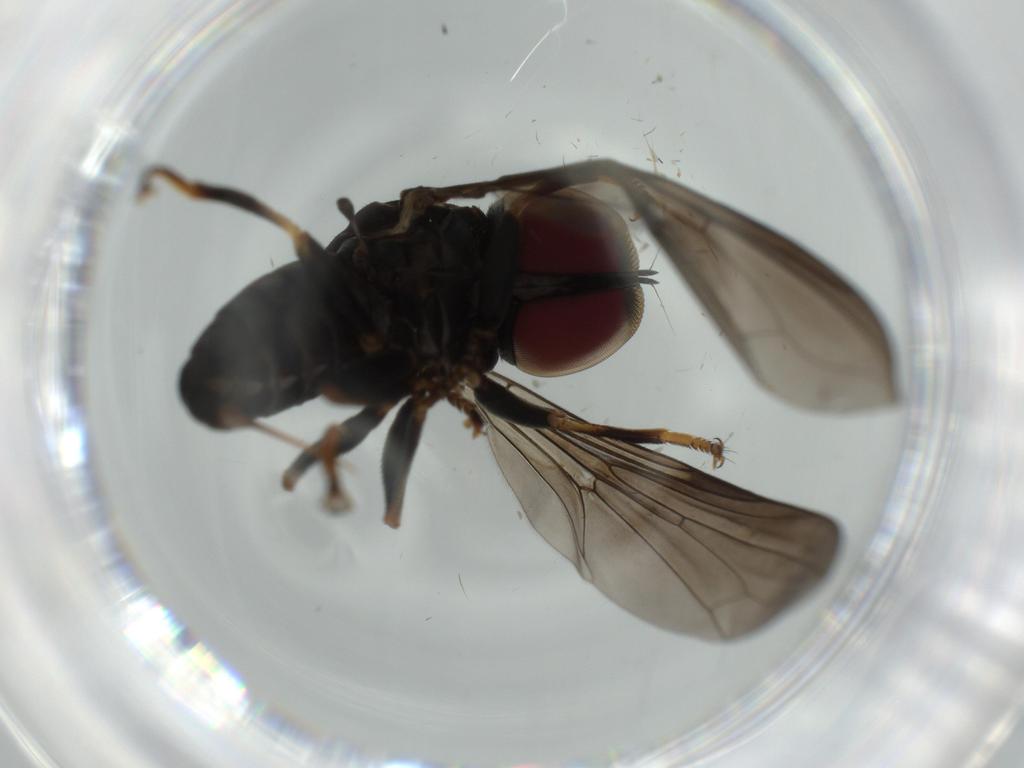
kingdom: Animalia
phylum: Arthropoda
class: Insecta
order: Diptera
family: Pipunculidae
